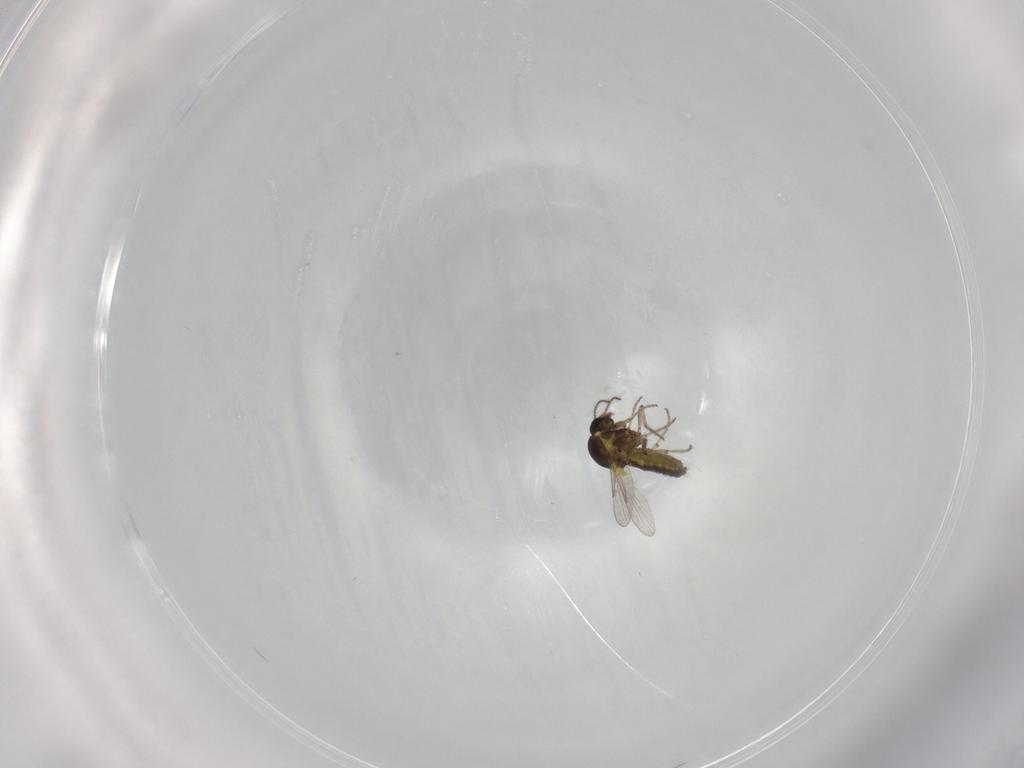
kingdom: Animalia
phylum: Arthropoda
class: Insecta
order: Diptera
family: Ceratopogonidae
